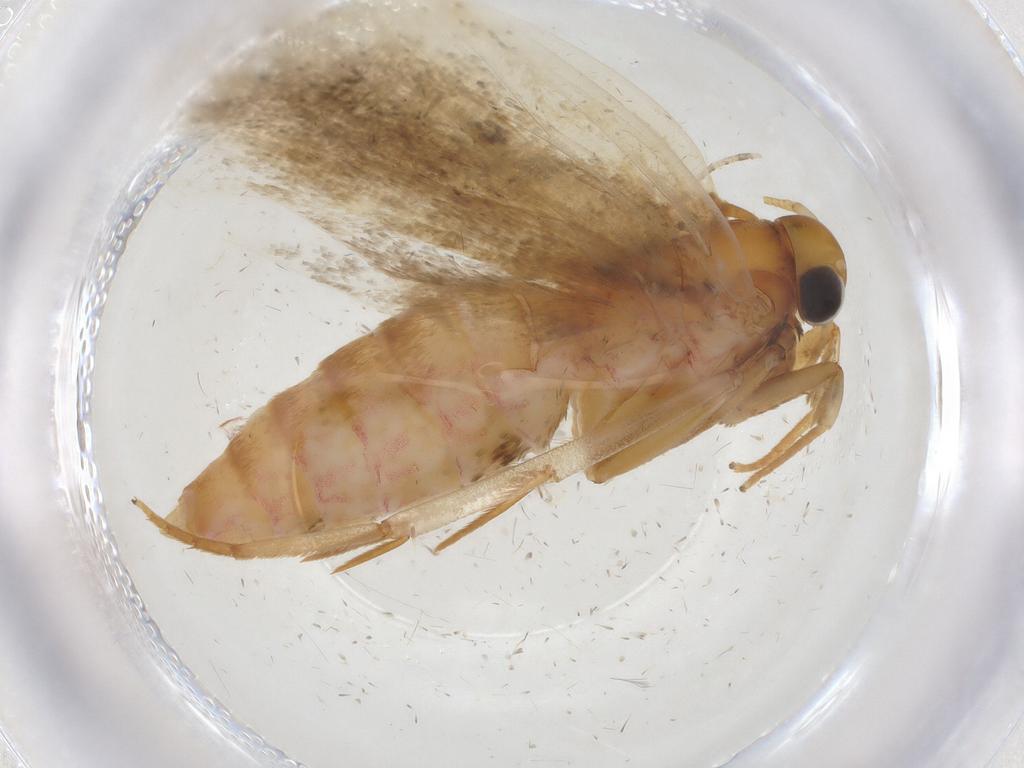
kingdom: Animalia
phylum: Arthropoda
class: Insecta
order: Lepidoptera
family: Oecophoridae
